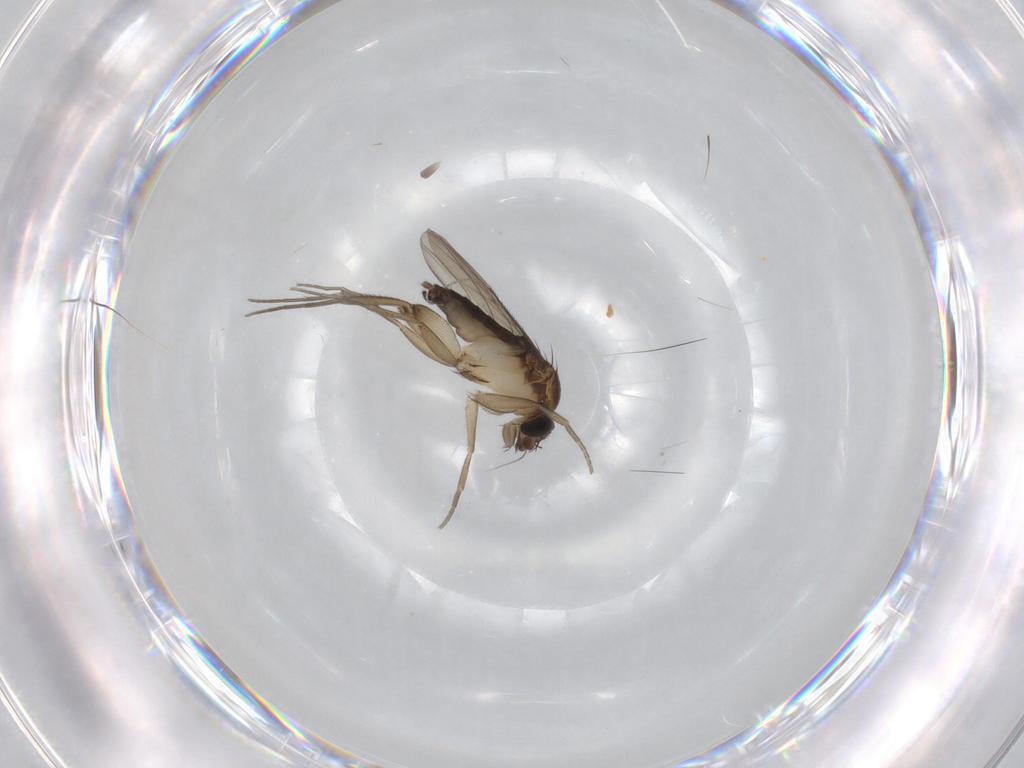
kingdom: Animalia
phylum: Arthropoda
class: Insecta
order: Diptera
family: Phoridae
